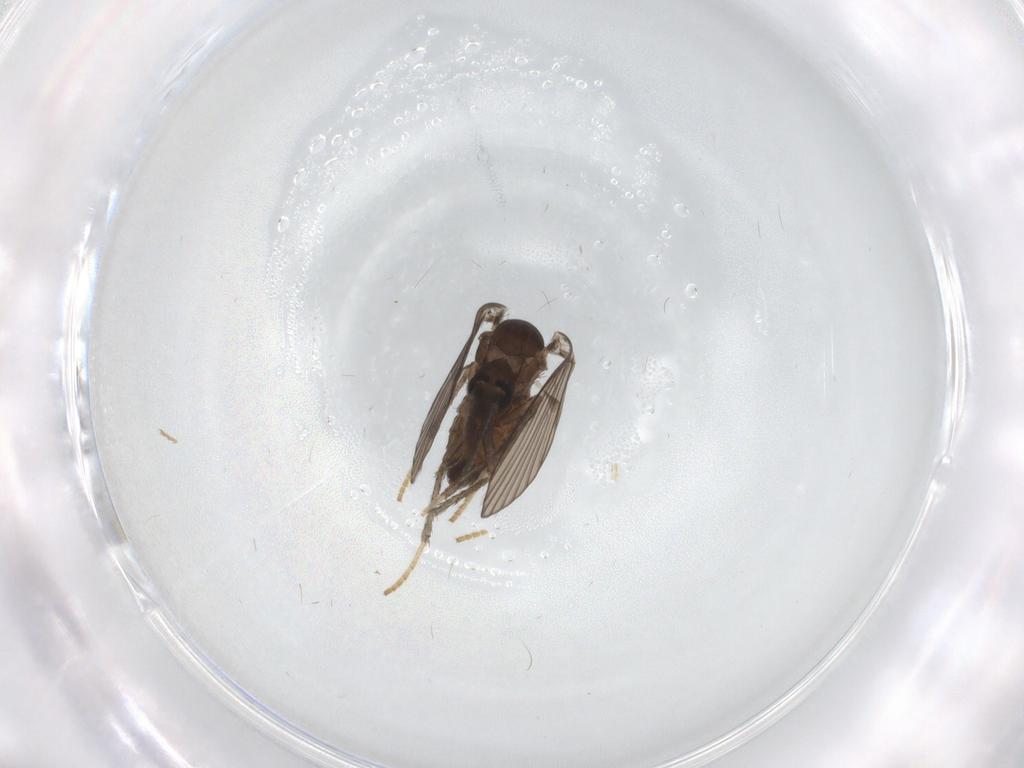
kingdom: Animalia
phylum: Arthropoda
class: Insecta
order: Diptera
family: Psychodidae
